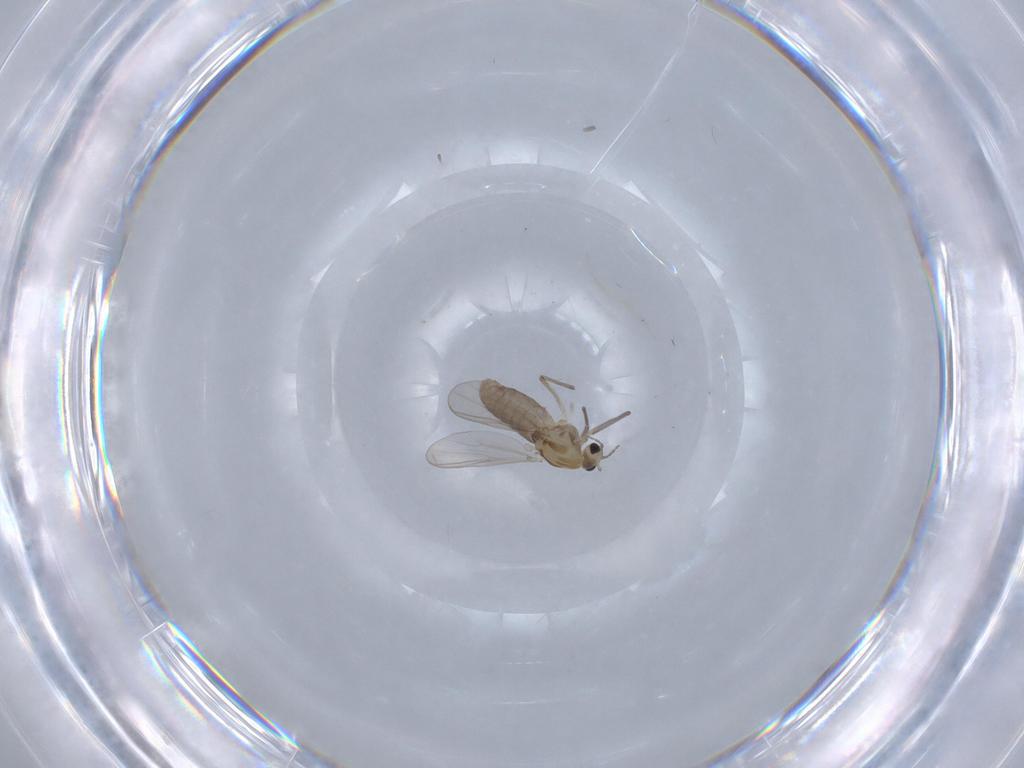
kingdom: Animalia
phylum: Arthropoda
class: Insecta
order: Diptera
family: Chironomidae
